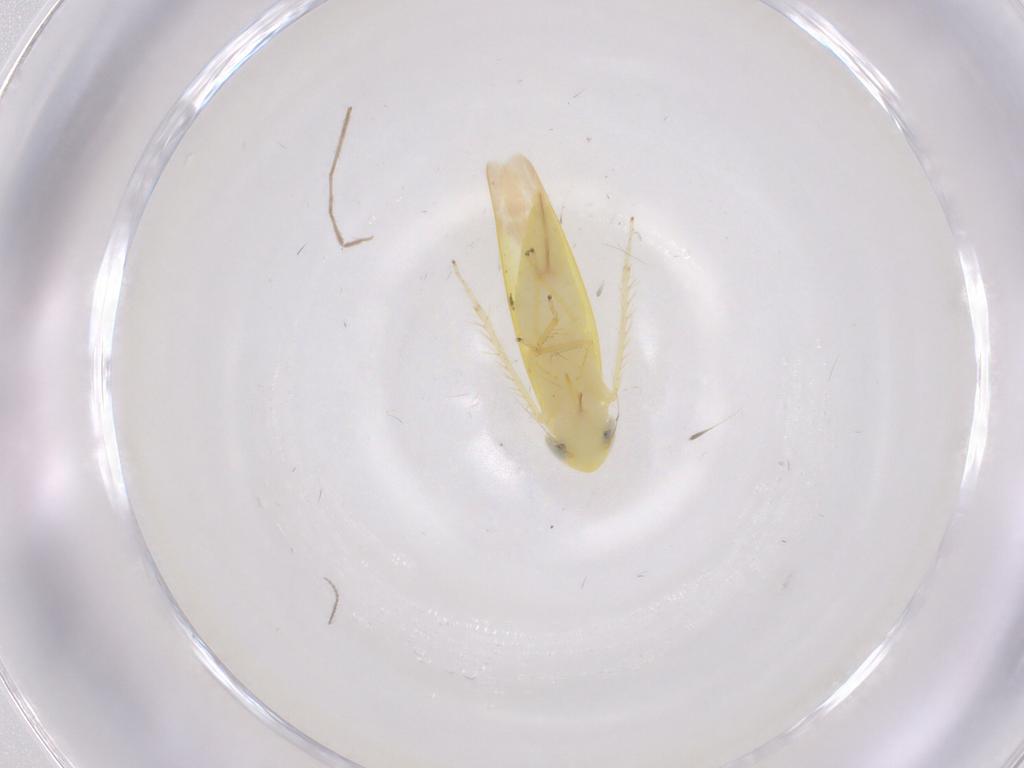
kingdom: Animalia
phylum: Arthropoda
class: Insecta
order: Diptera
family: Chironomidae
